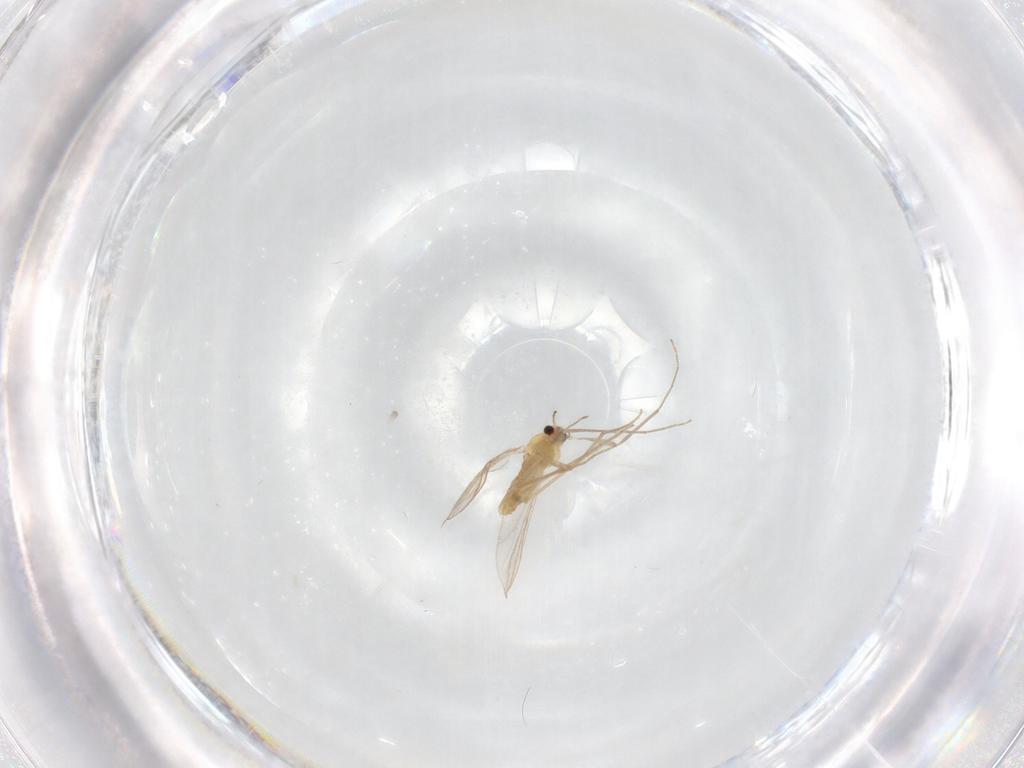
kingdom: Animalia
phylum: Arthropoda
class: Insecta
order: Diptera
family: Chironomidae
